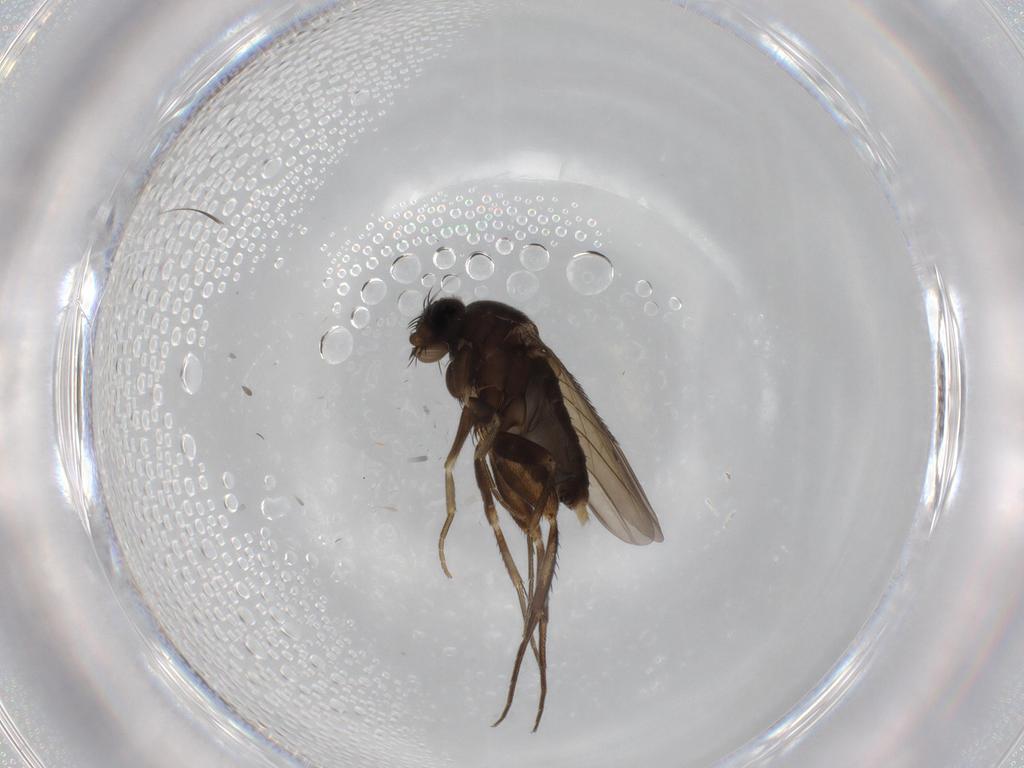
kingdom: Animalia
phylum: Arthropoda
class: Insecta
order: Diptera
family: Phoridae
